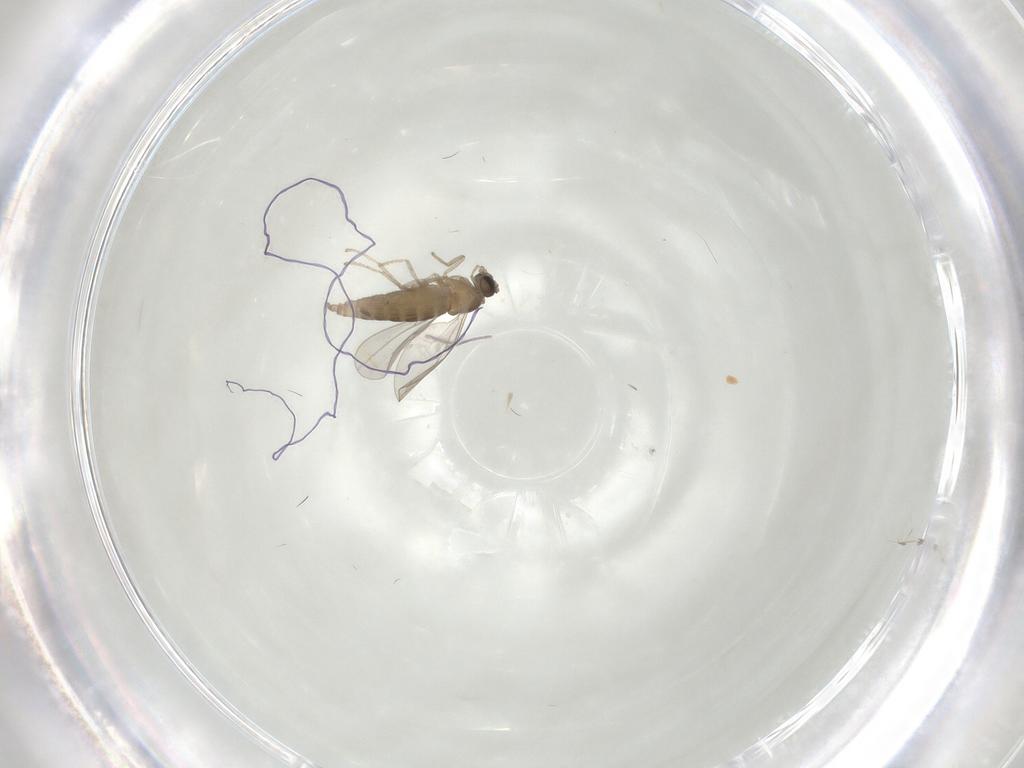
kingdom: Animalia
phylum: Arthropoda
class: Insecta
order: Diptera
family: Cecidomyiidae
